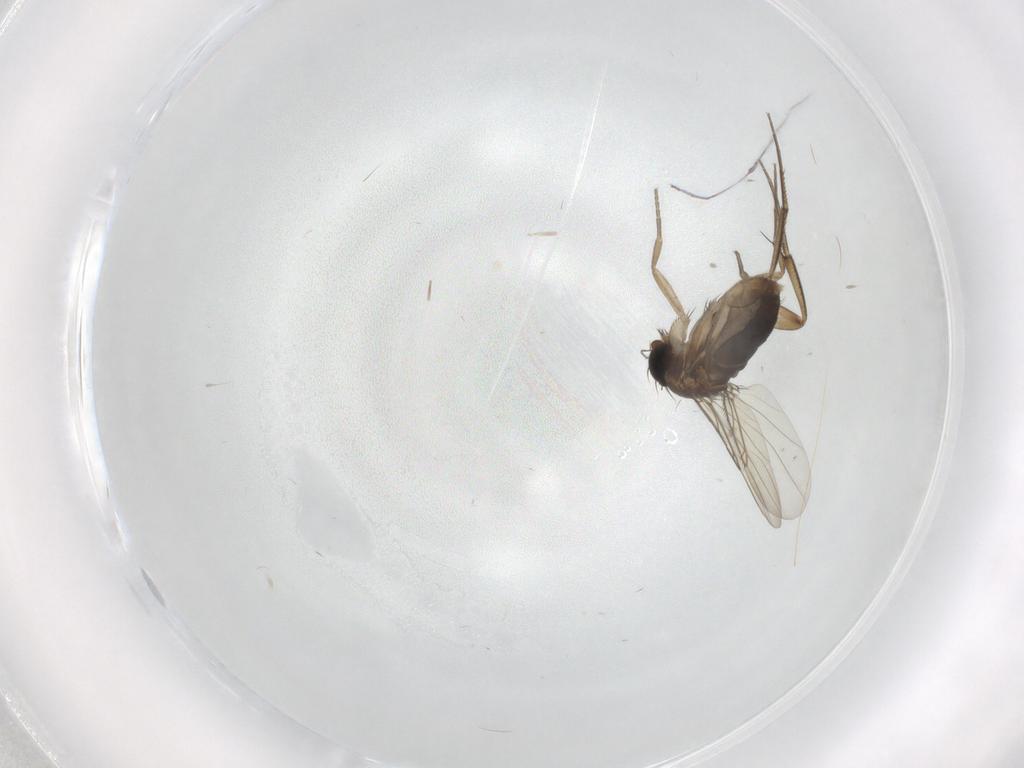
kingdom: Animalia
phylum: Arthropoda
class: Insecta
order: Diptera
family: Phoridae
